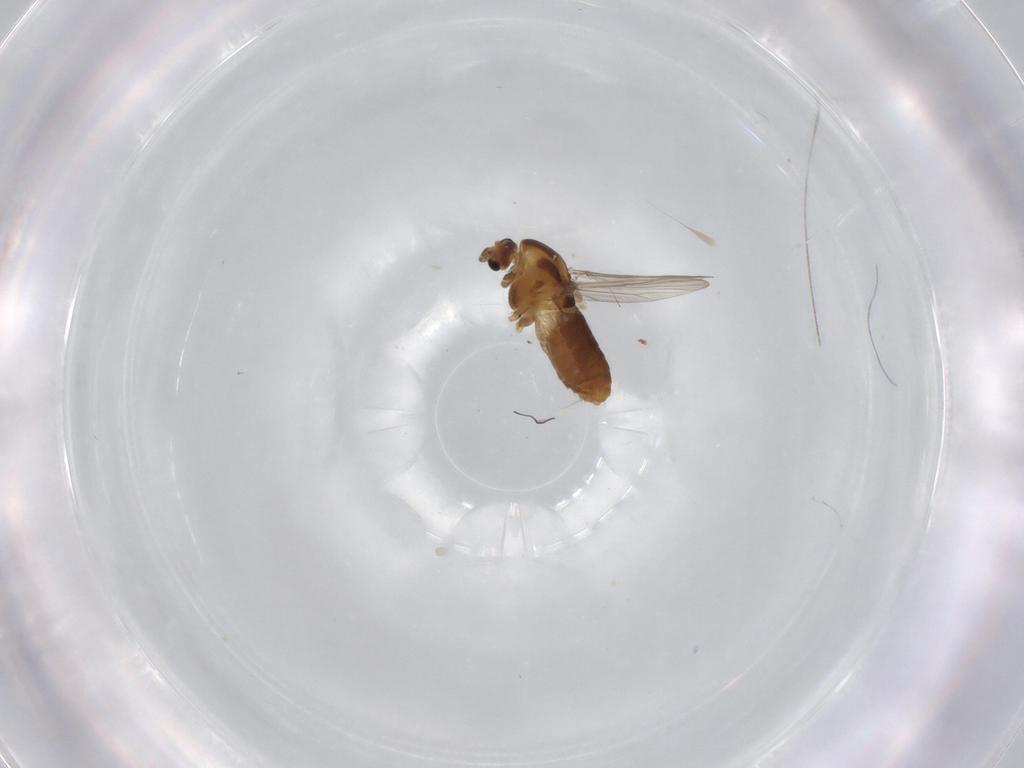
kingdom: Animalia
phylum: Arthropoda
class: Insecta
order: Diptera
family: Chironomidae
